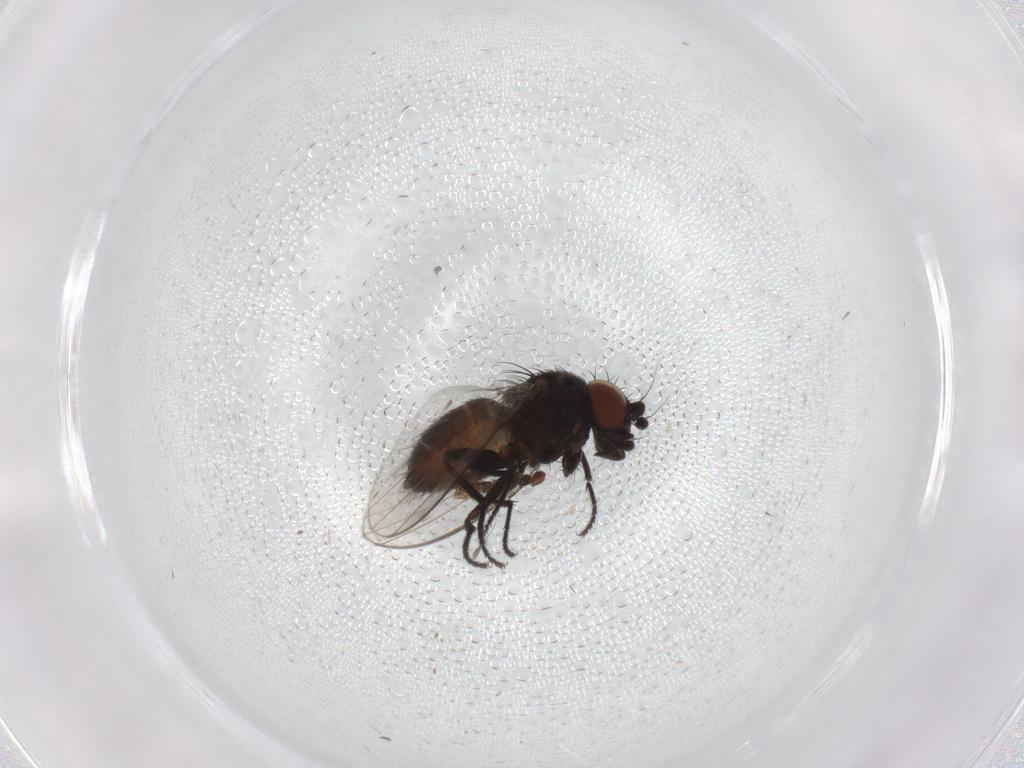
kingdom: Animalia
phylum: Arthropoda
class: Insecta
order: Diptera
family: Milichiidae
